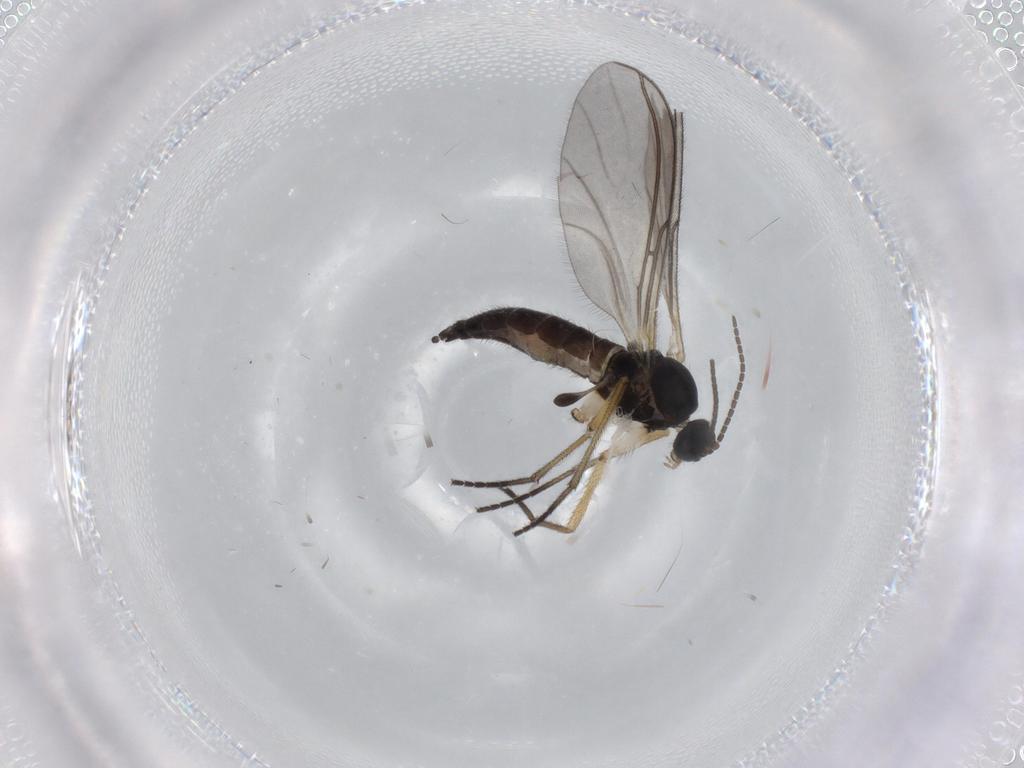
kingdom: Animalia
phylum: Arthropoda
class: Insecta
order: Diptera
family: Sciaridae
